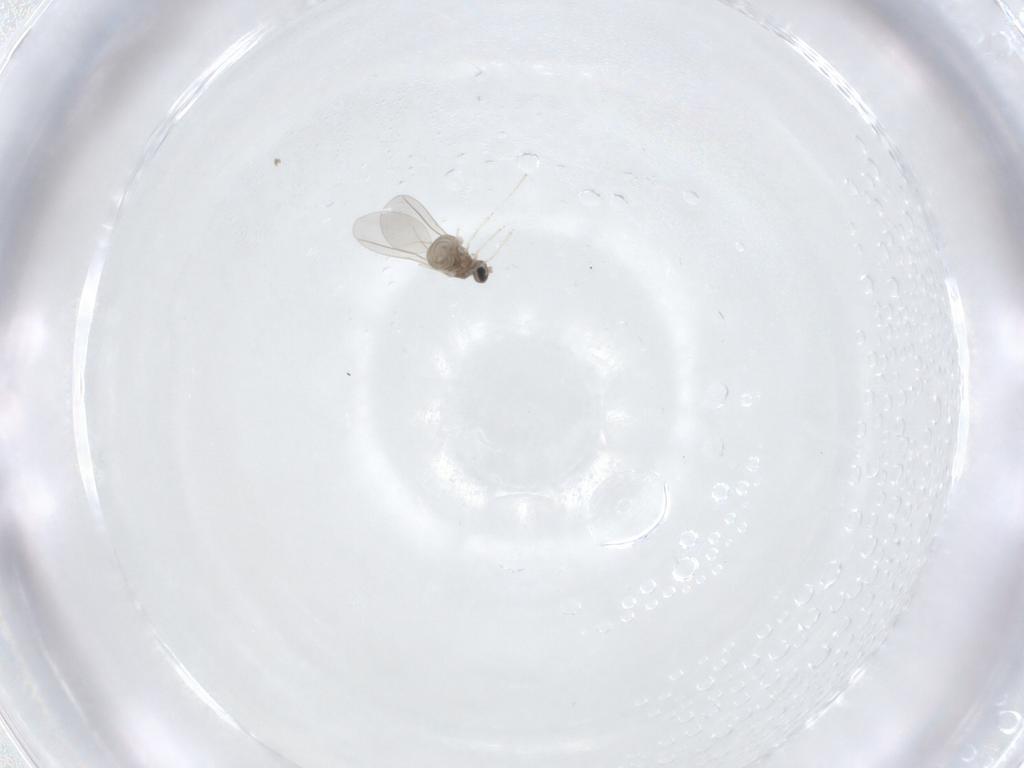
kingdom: Animalia
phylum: Arthropoda
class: Insecta
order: Diptera
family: Cecidomyiidae
